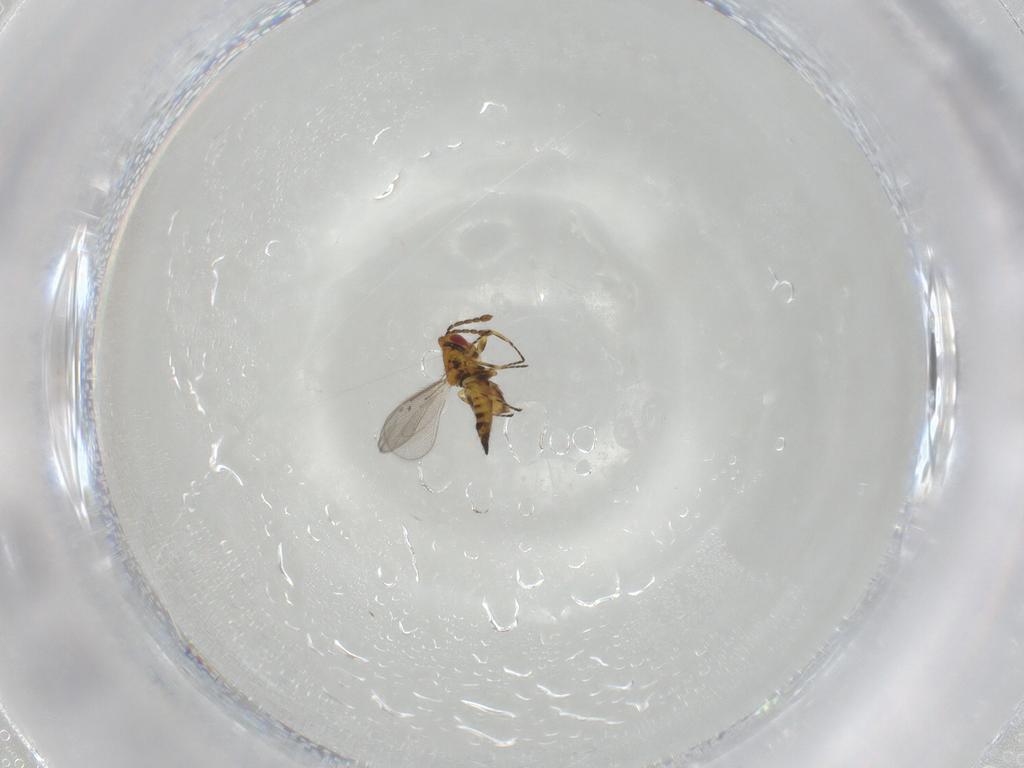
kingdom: Animalia
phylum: Arthropoda
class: Insecta
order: Hymenoptera
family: Eulophidae
